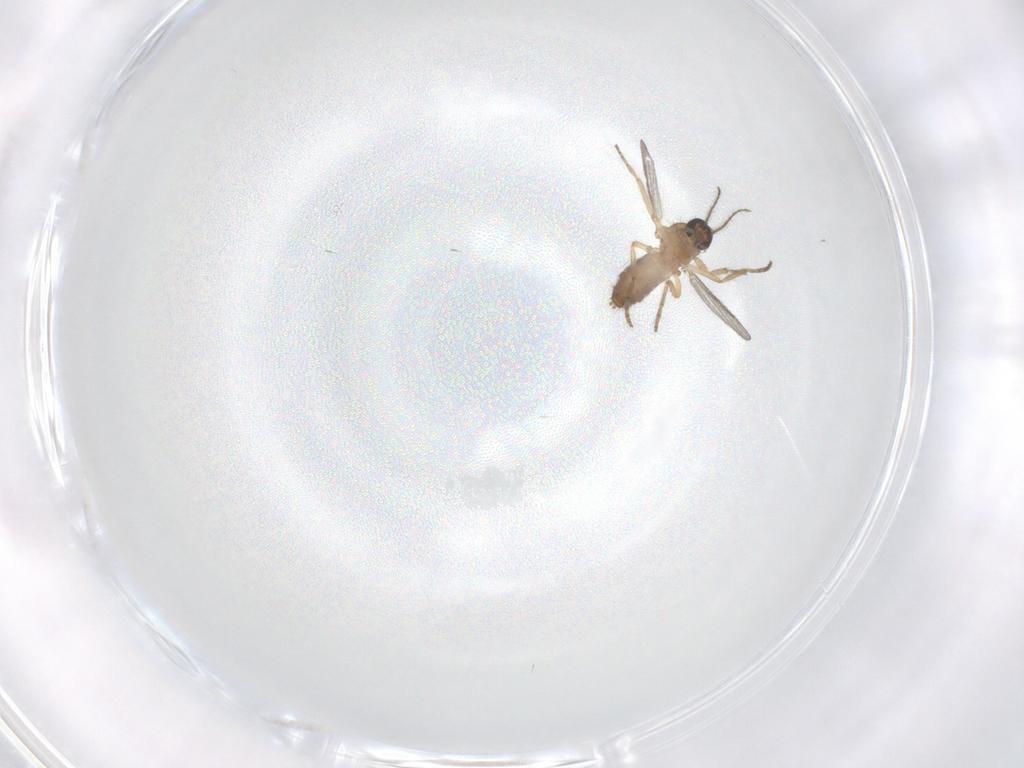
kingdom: Animalia
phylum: Arthropoda
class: Insecta
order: Diptera
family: Ceratopogonidae
